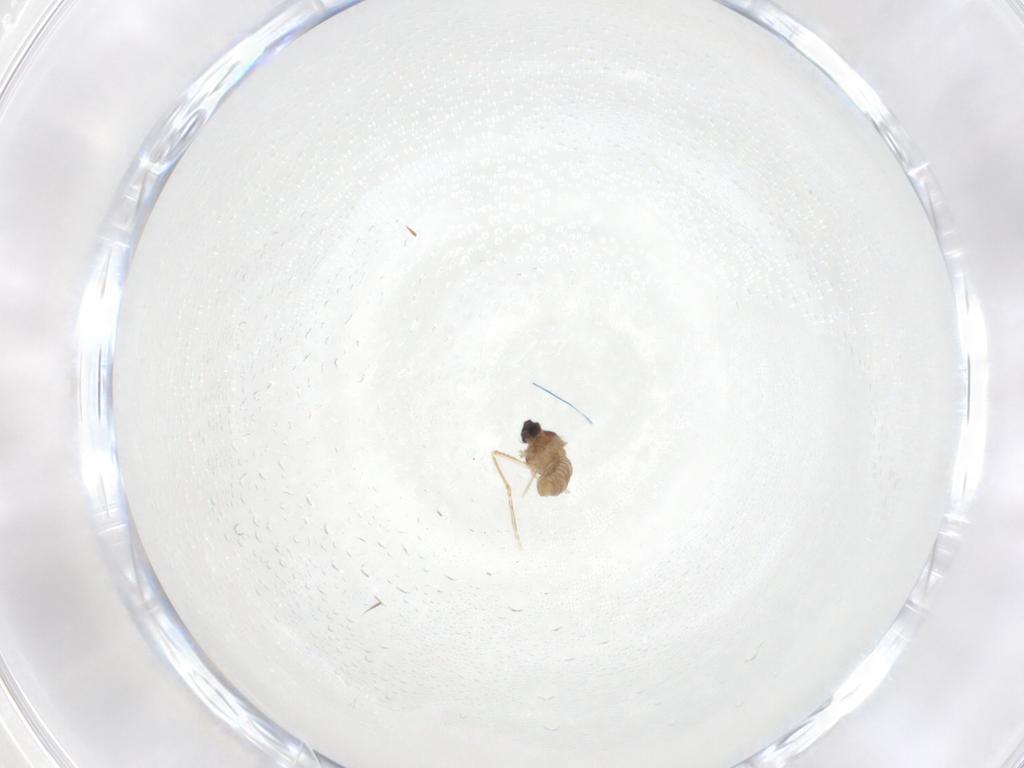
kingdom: Animalia
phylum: Arthropoda
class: Insecta
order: Diptera
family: Cecidomyiidae
